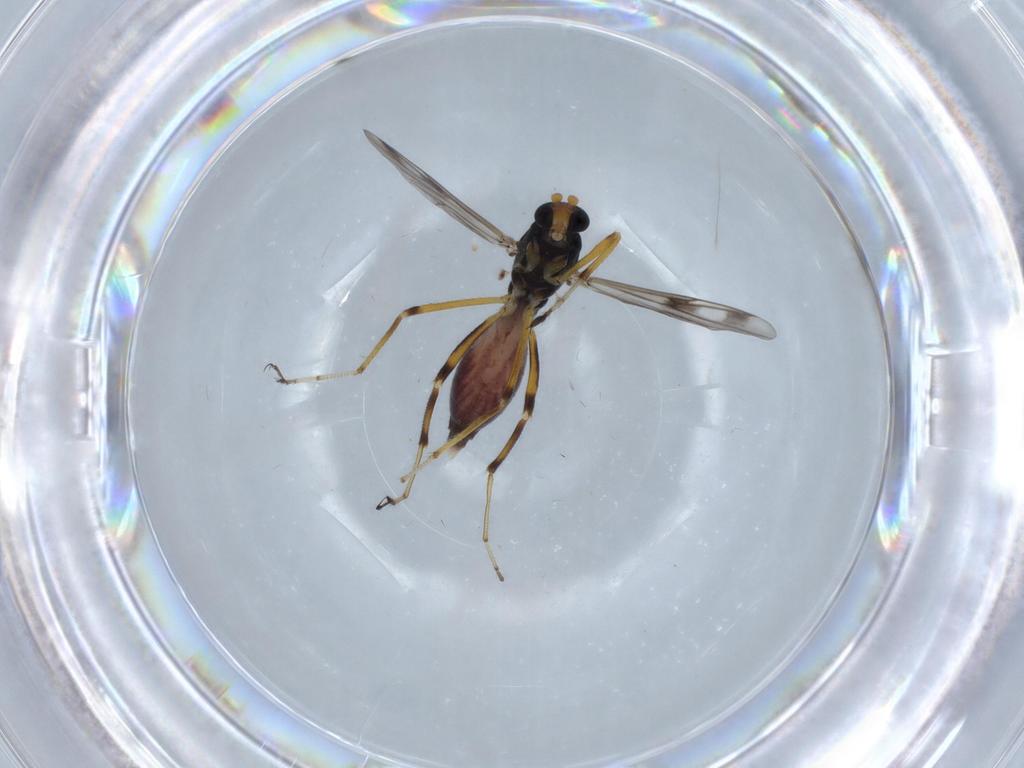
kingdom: Animalia
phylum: Arthropoda
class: Insecta
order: Diptera
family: Ceratopogonidae
